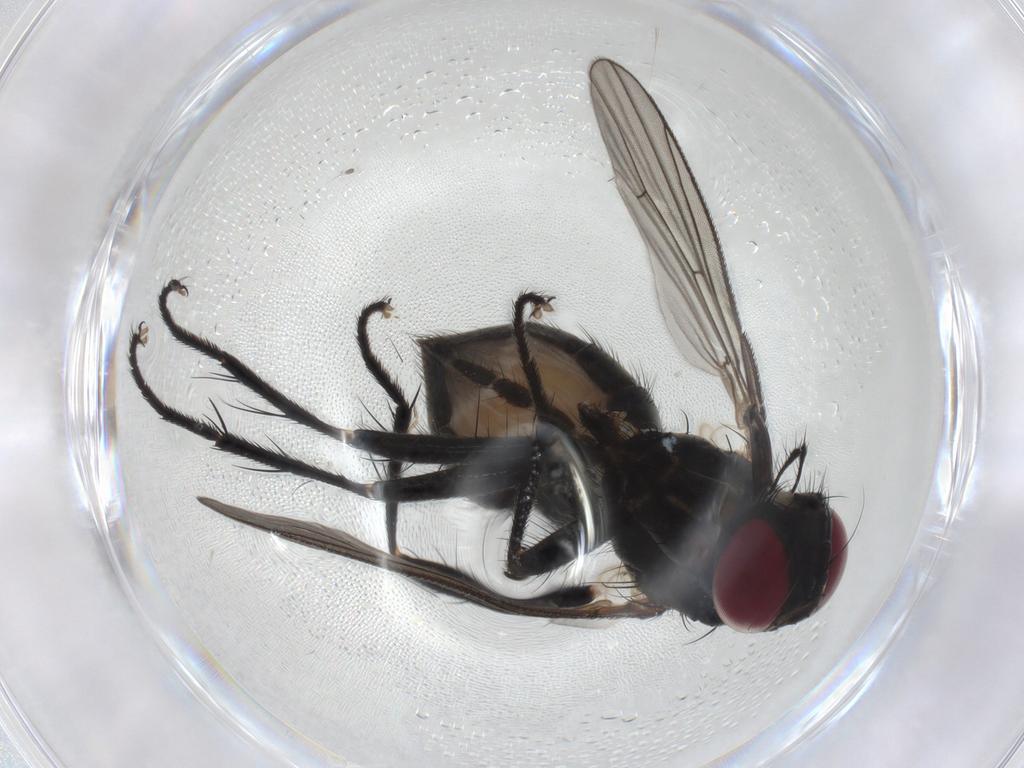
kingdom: Animalia
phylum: Arthropoda
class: Insecta
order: Diptera
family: Muscidae
